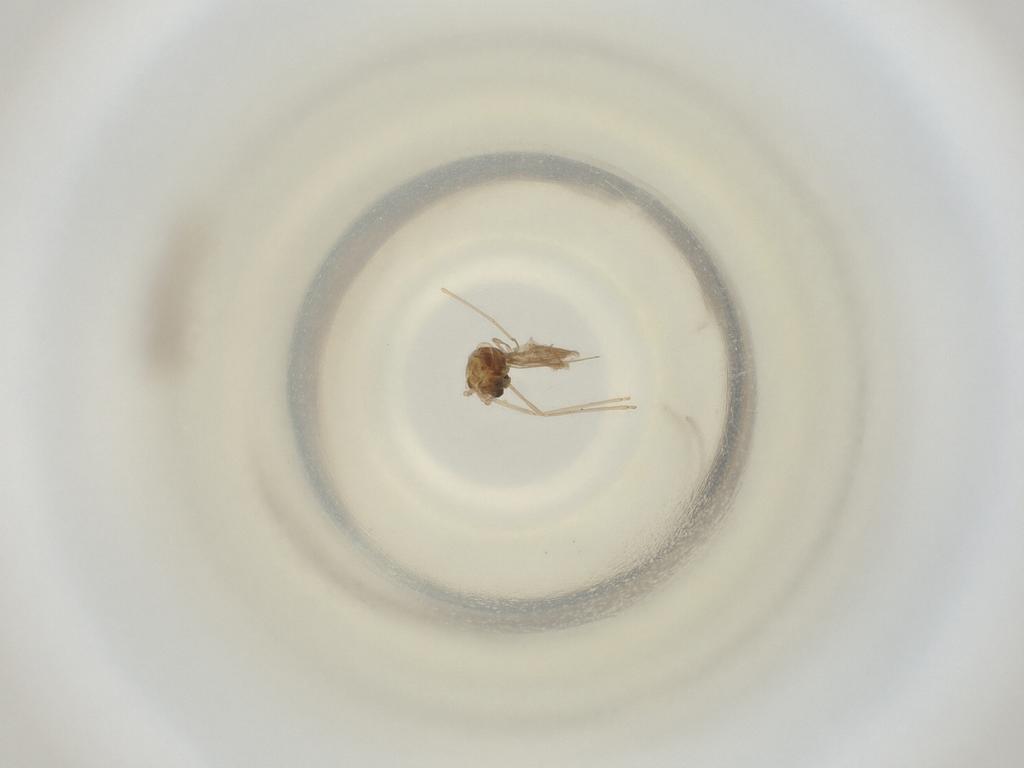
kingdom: Animalia
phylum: Arthropoda
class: Insecta
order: Diptera
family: Cecidomyiidae
